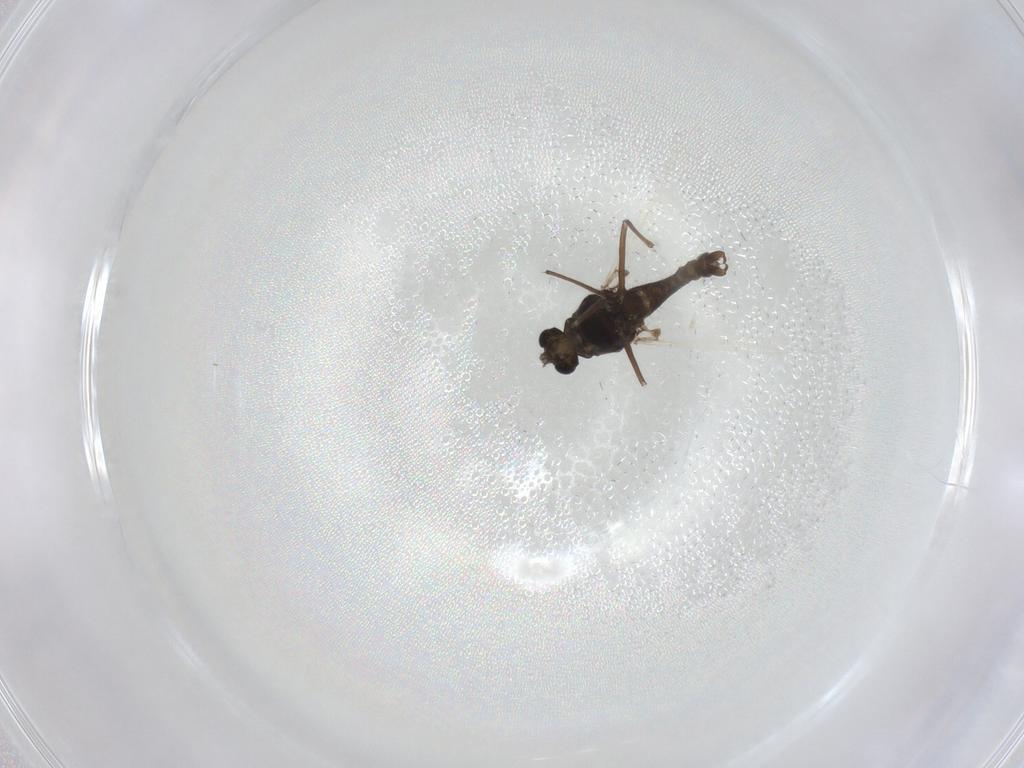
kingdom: Animalia
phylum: Arthropoda
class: Insecta
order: Diptera
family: Chironomidae
